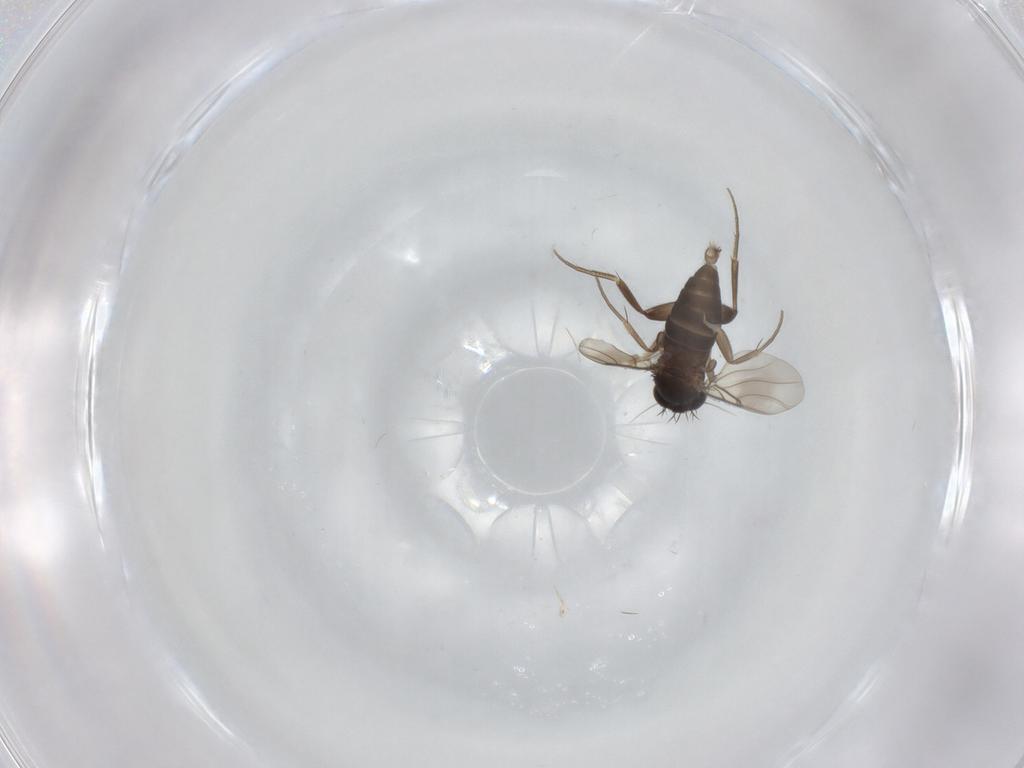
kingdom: Animalia
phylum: Arthropoda
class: Insecta
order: Diptera
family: Phoridae
